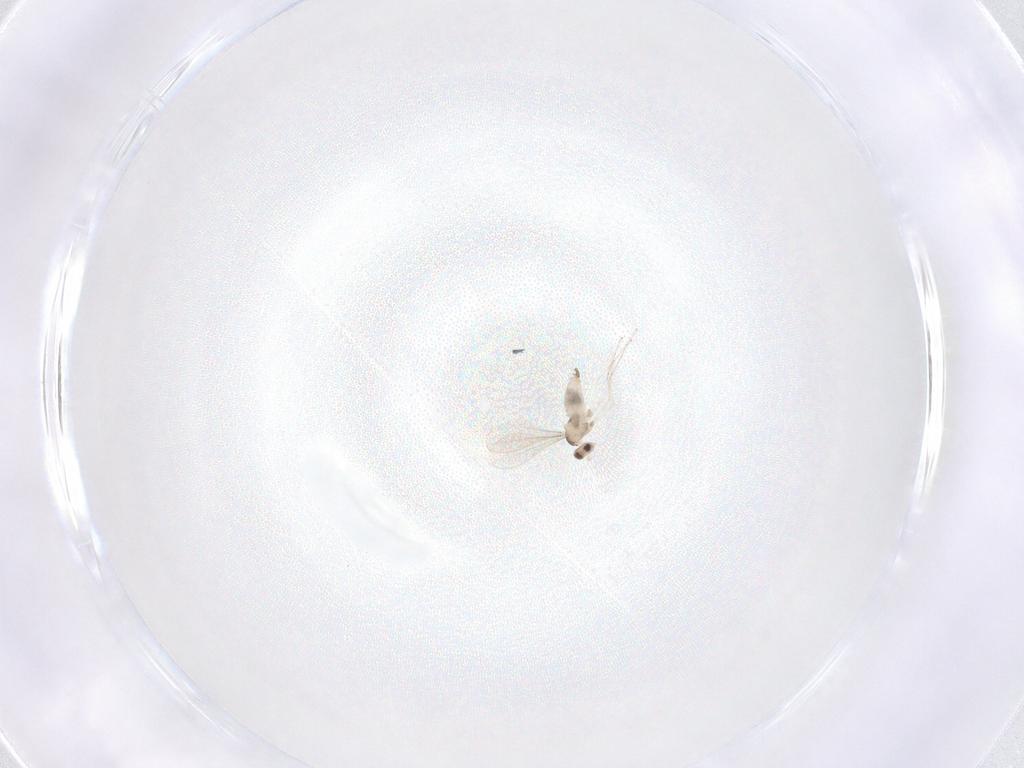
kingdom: Animalia
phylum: Arthropoda
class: Insecta
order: Diptera
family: Cecidomyiidae
